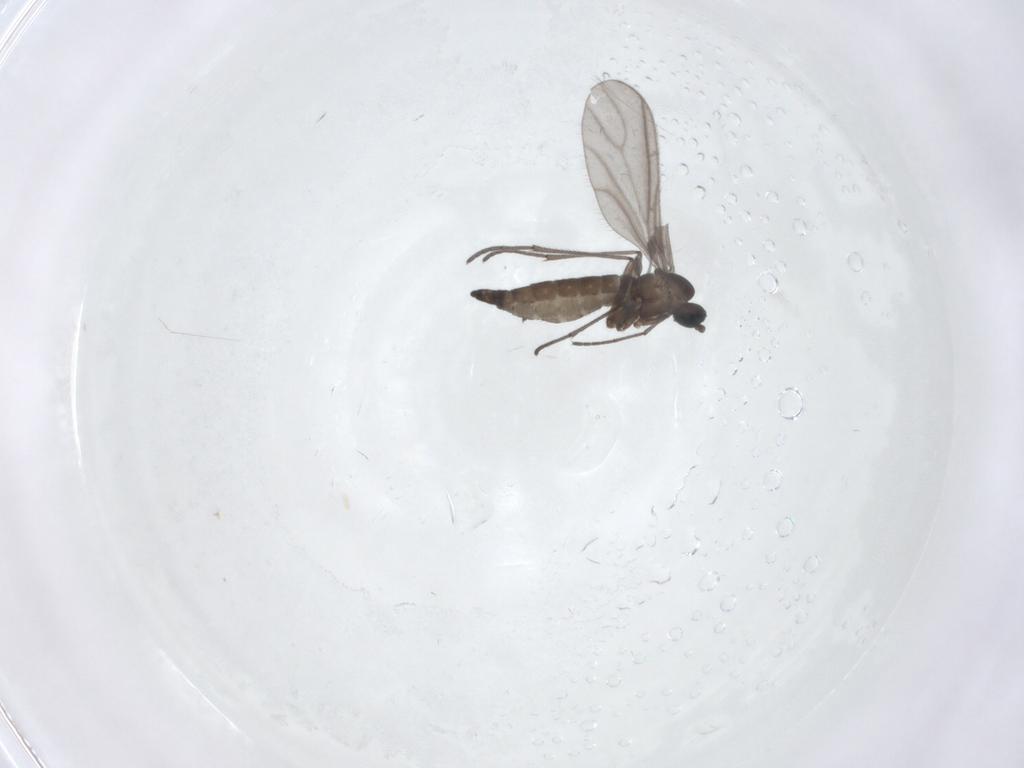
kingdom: Animalia
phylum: Arthropoda
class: Insecta
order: Diptera
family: Sciaridae
